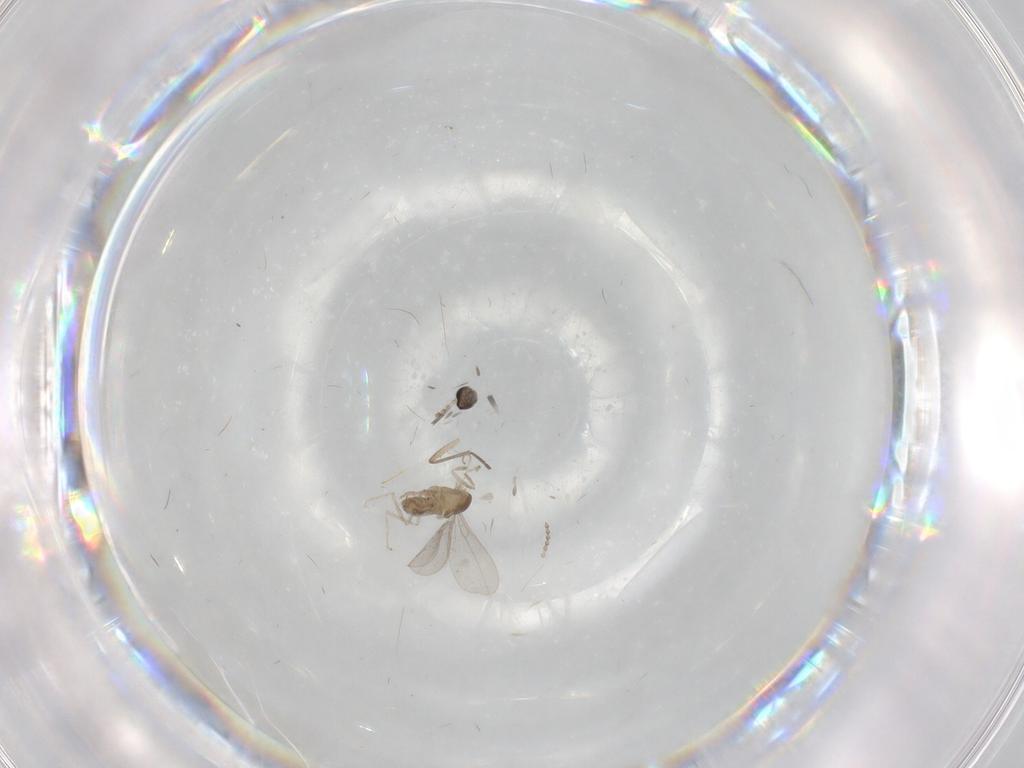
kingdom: Animalia
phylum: Arthropoda
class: Insecta
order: Diptera
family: Cecidomyiidae
